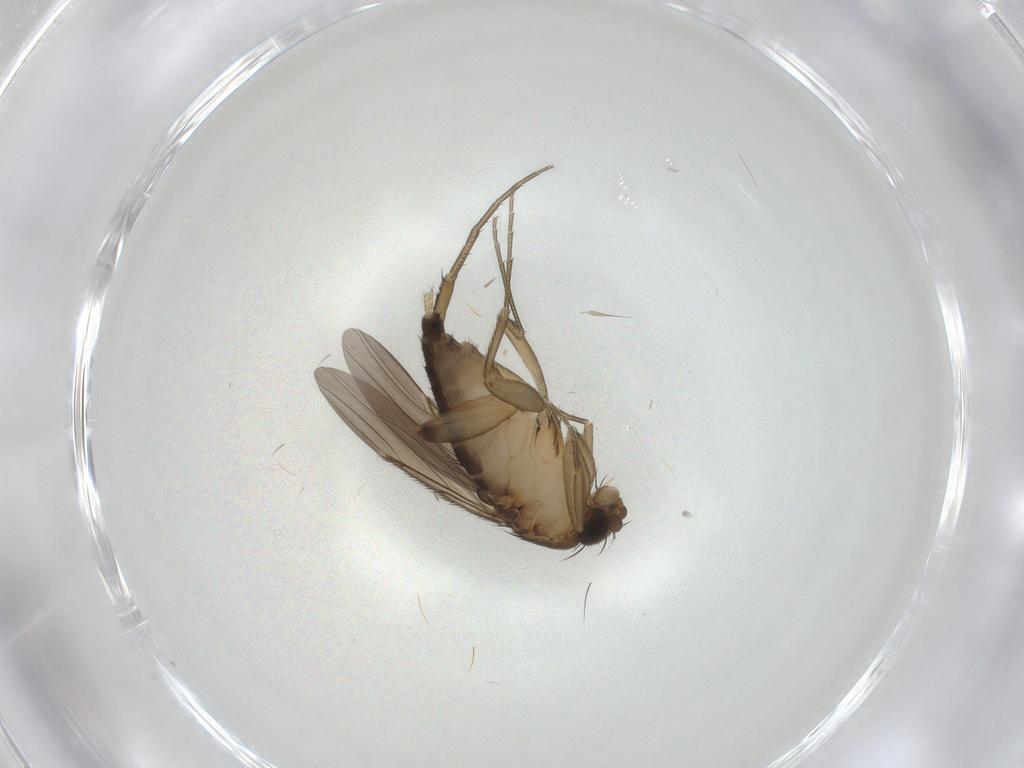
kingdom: Animalia
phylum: Arthropoda
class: Insecta
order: Diptera
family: Phoridae
